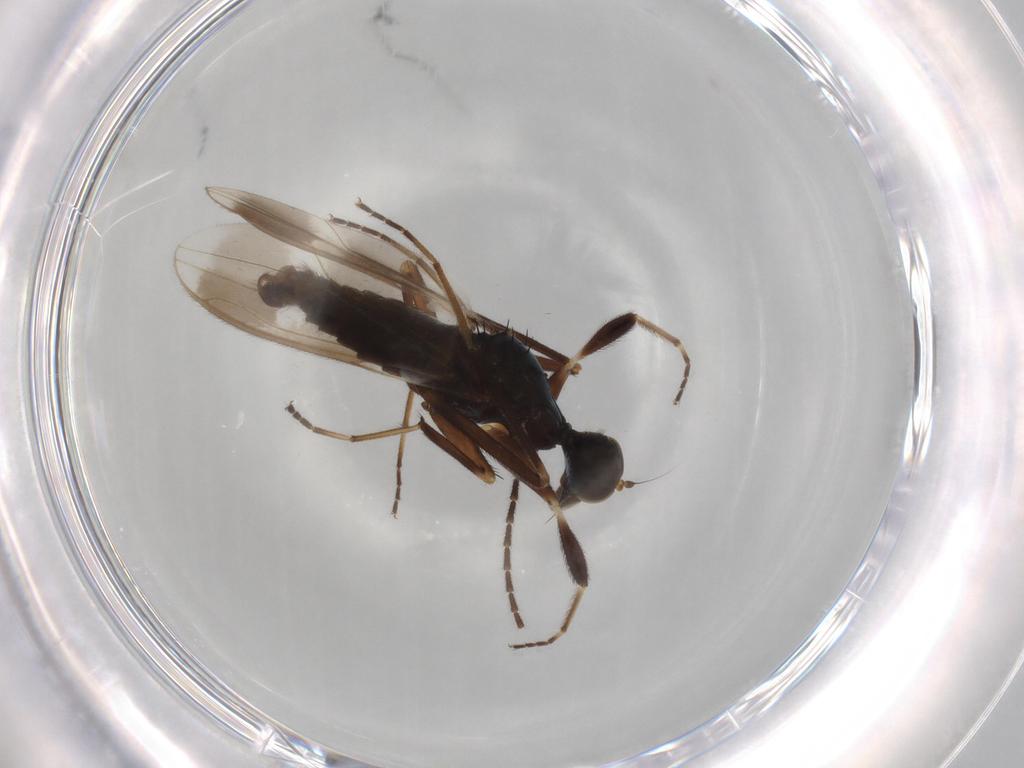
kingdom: Animalia
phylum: Arthropoda
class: Insecta
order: Diptera
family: Hybotidae
